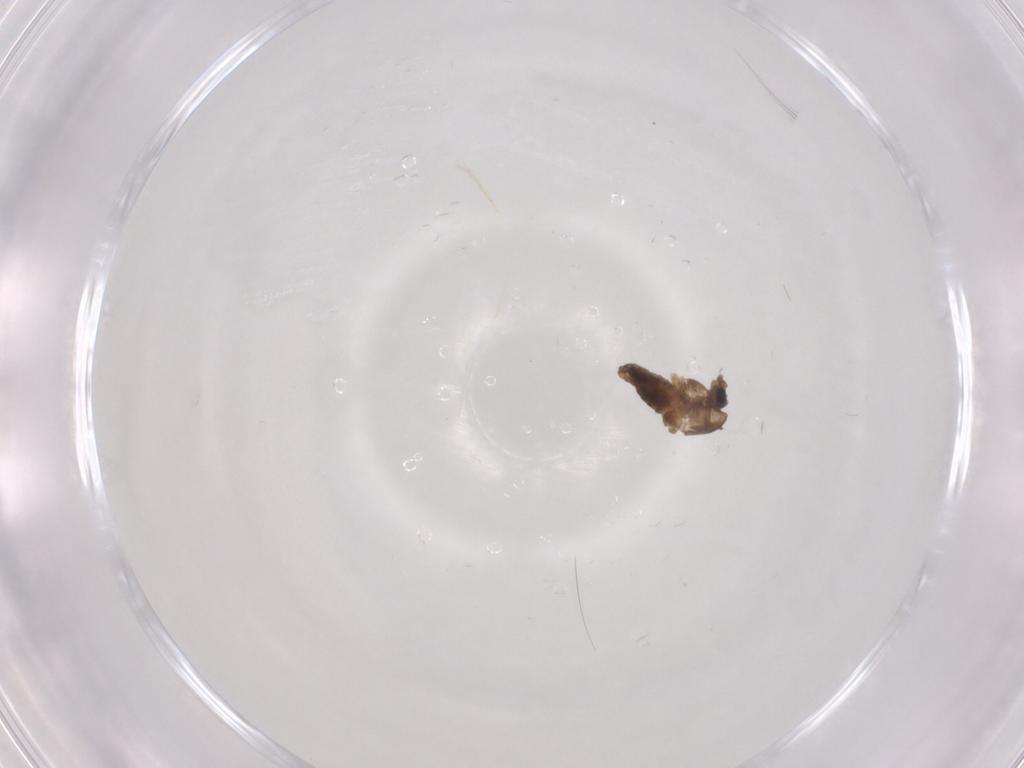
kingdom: Animalia
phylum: Arthropoda
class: Insecta
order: Diptera
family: Chironomidae
